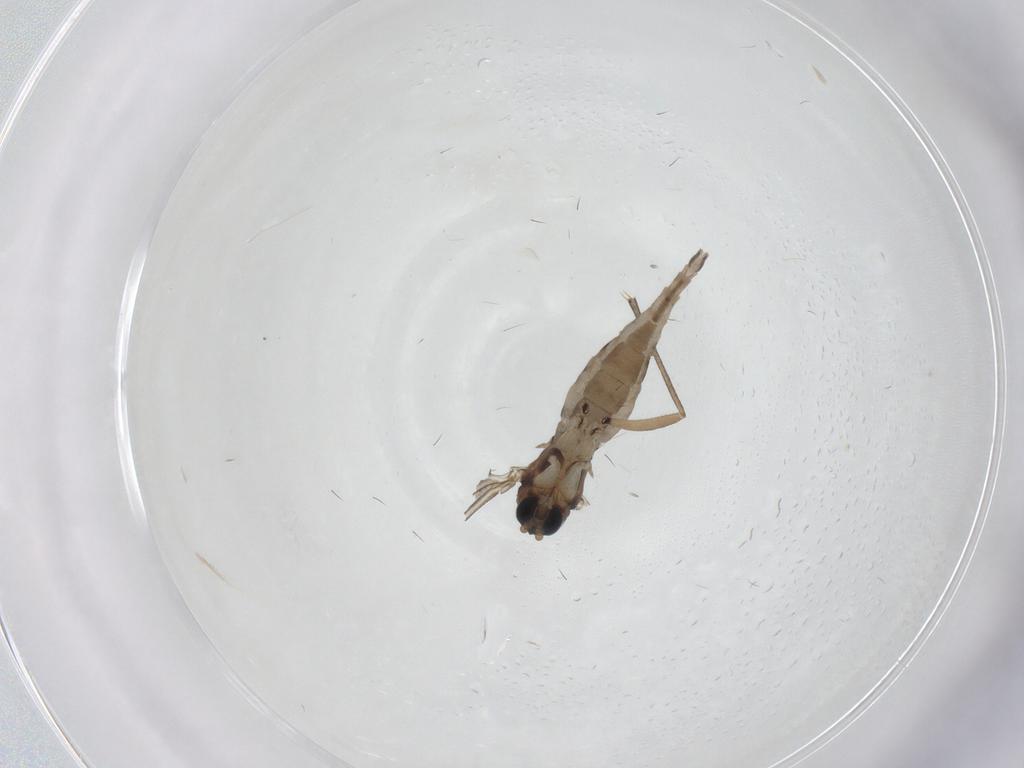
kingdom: Animalia
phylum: Arthropoda
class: Insecta
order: Diptera
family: Sciaridae
